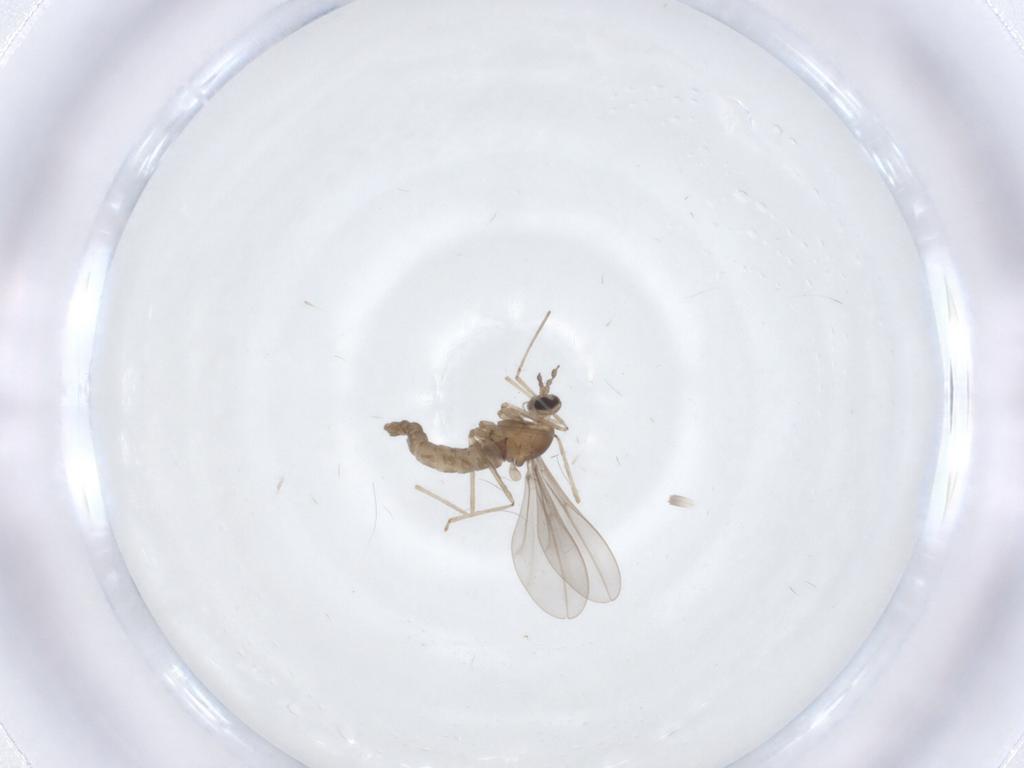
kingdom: Animalia
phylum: Arthropoda
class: Insecta
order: Diptera
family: Cecidomyiidae
